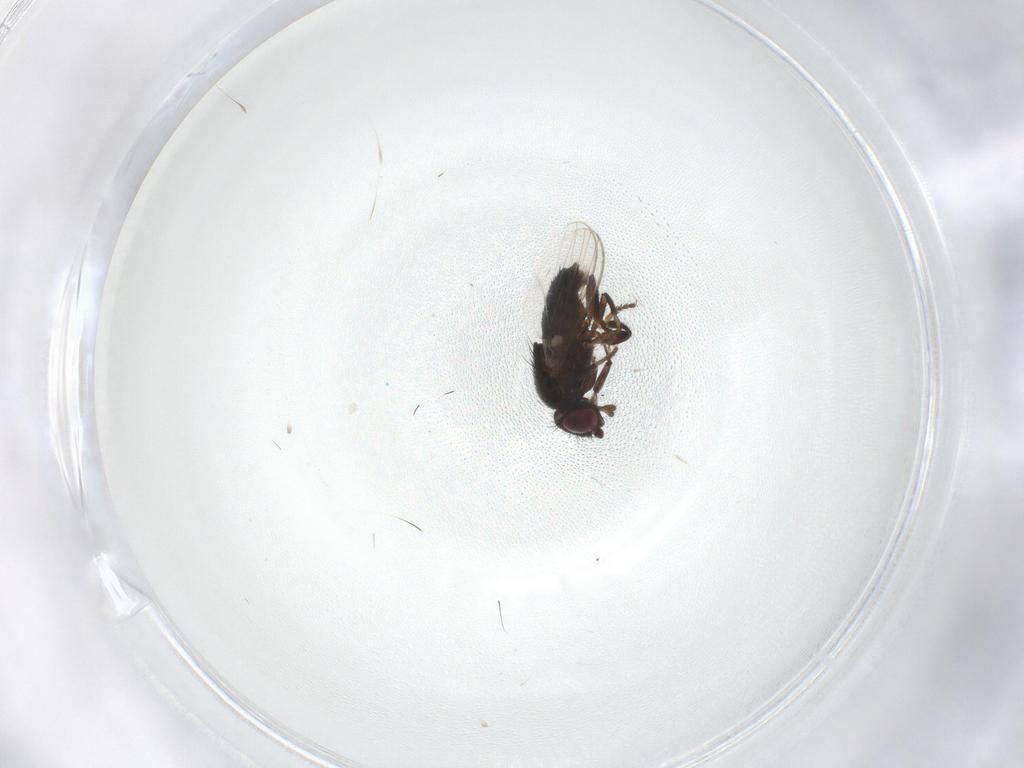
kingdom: Animalia
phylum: Arthropoda
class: Insecta
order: Diptera
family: Milichiidae
